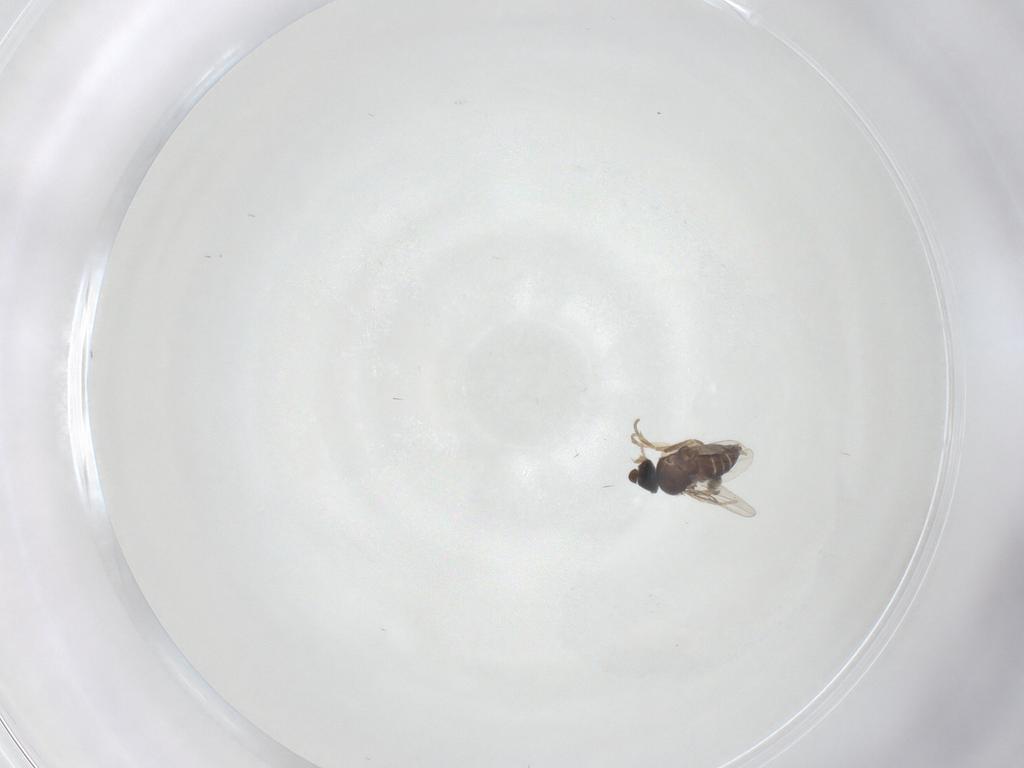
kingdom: Animalia
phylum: Arthropoda
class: Insecta
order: Diptera
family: Phoridae
